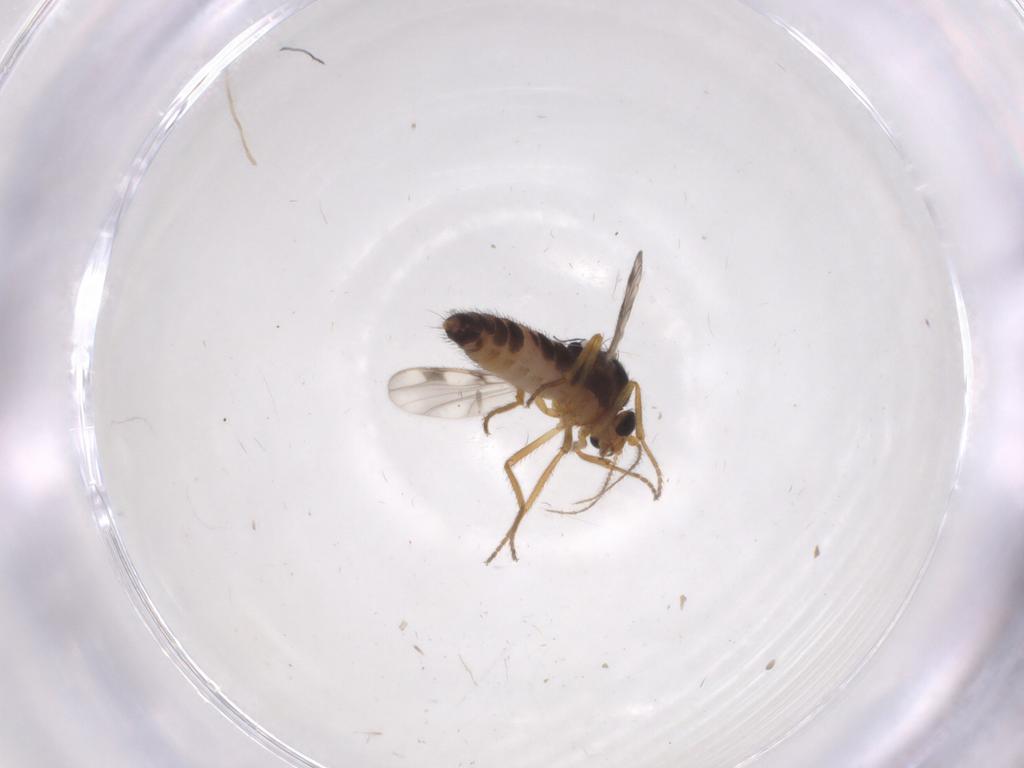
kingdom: Animalia
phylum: Arthropoda
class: Insecta
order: Diptera
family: Ceratopogonidae
